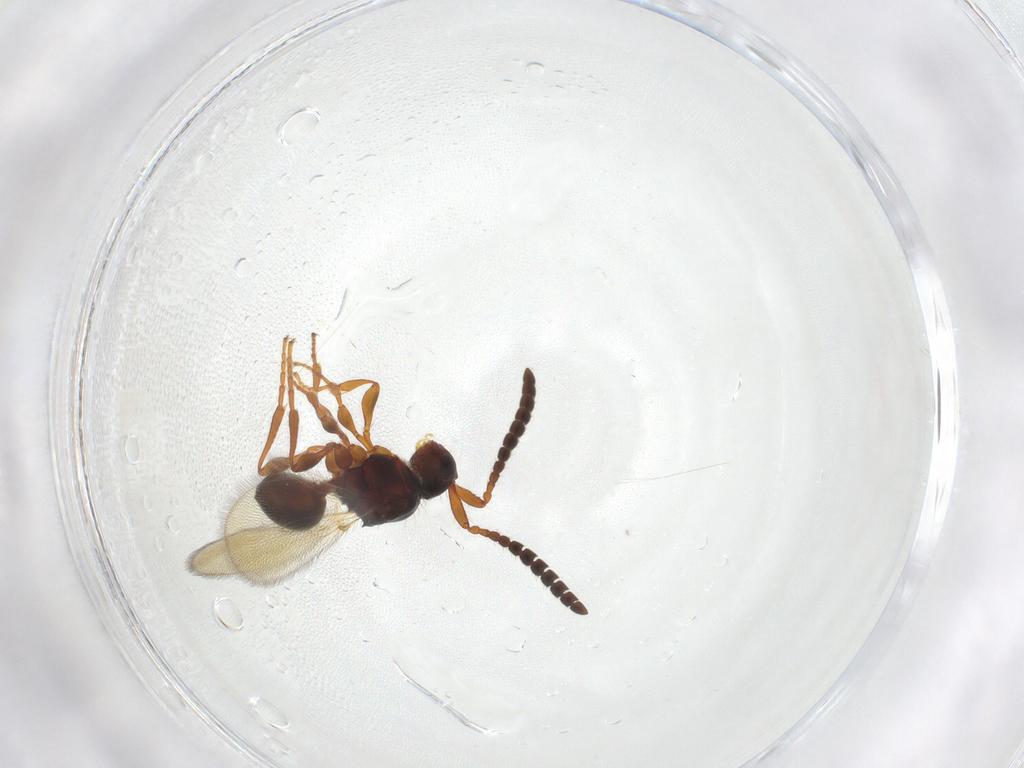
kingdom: Animalia
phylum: Arthropoda
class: Insecta
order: Hymenoptera
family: Diapriidae
